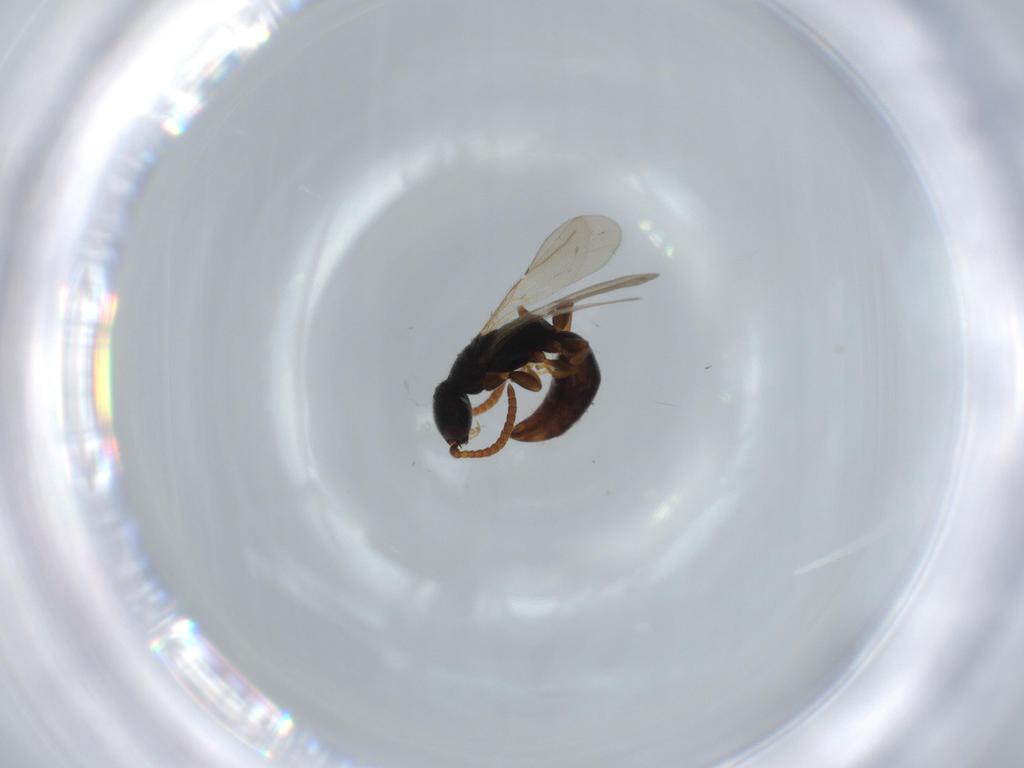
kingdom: Animalia
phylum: Arthropoda
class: Insecta
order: Hymenoptera
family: Bethylidae
